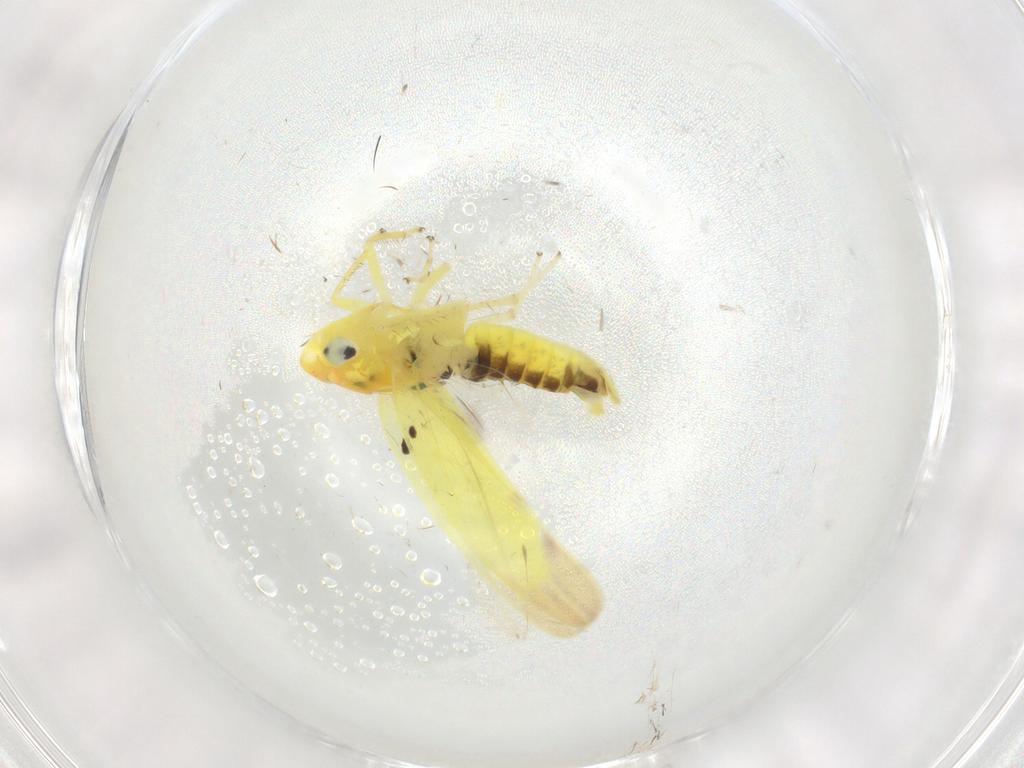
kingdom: Animalia
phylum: Arthropoda
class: Insecta
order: Hemiptera
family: Cicadellidae
